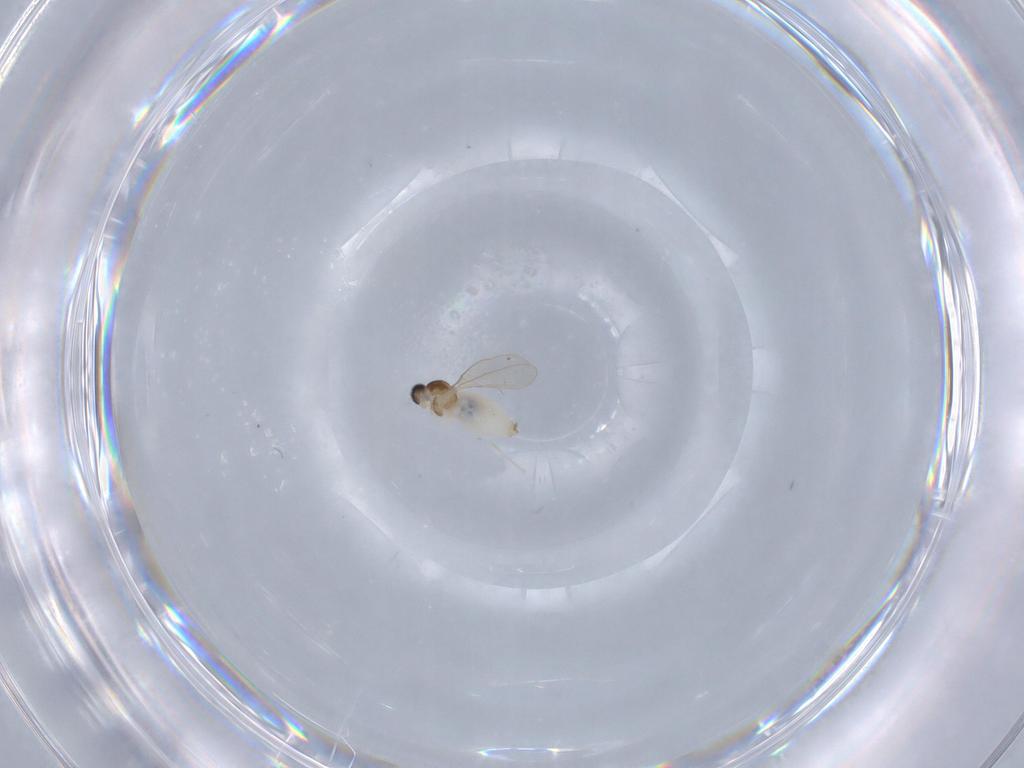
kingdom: Animalia
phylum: Arthropoda
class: Insecta
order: Diptera
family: Cecidomyiidae
